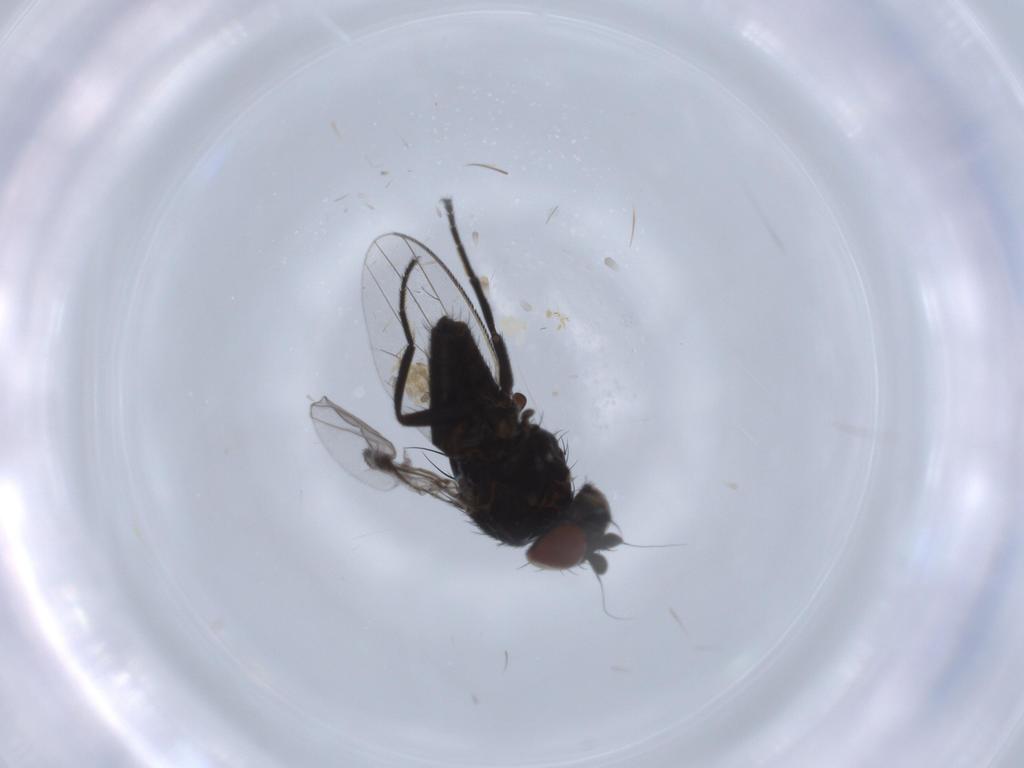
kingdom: Animalia
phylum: Arthropoda
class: Insecta
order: Diptera
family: Milichiidae
